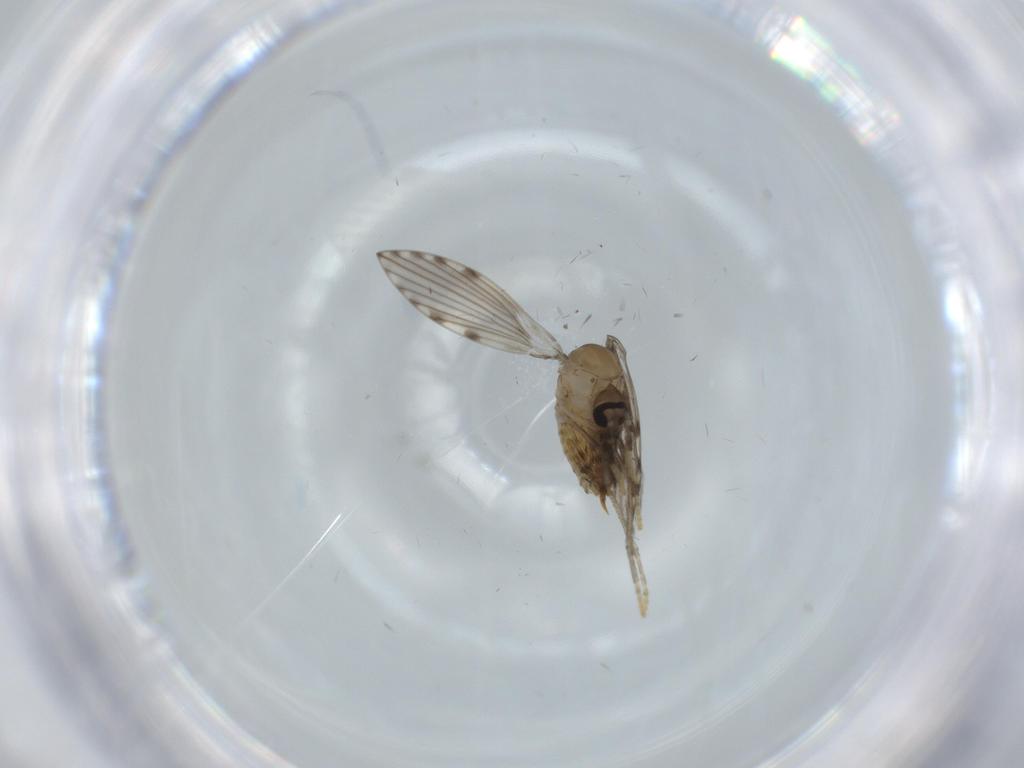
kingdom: Animalia
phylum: Arthropoda
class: Insecta
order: Diptera
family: Psychodidae
